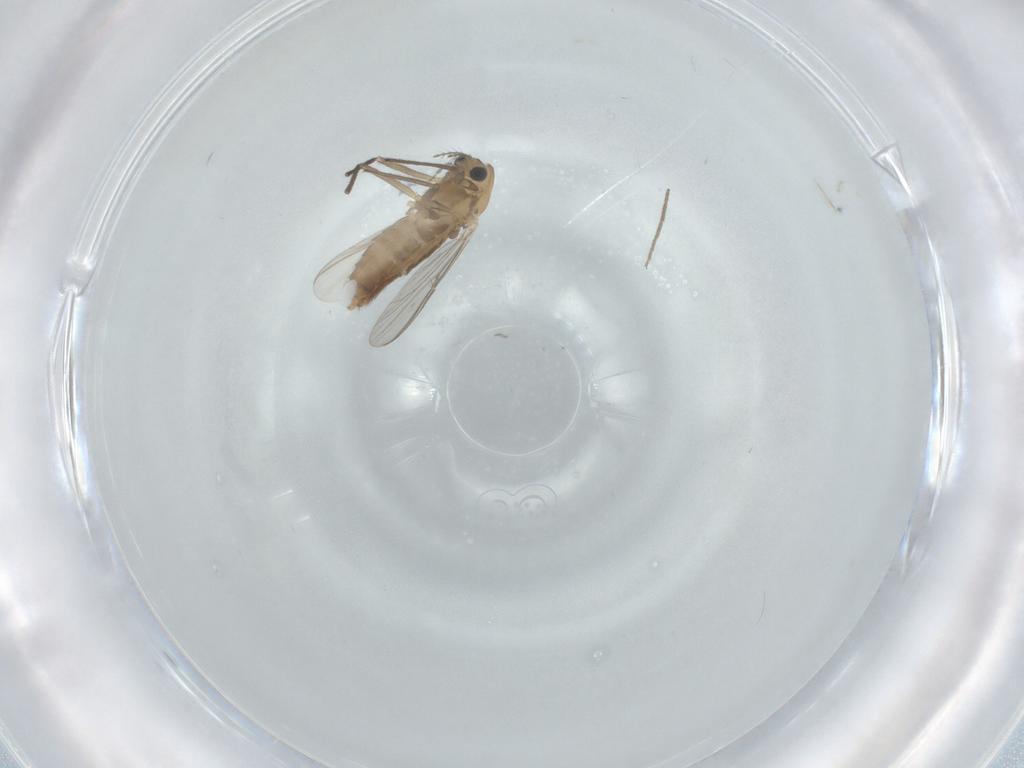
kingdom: Animalia
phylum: Arthropoda
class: Insecta
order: Diptera
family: Chironomidae
